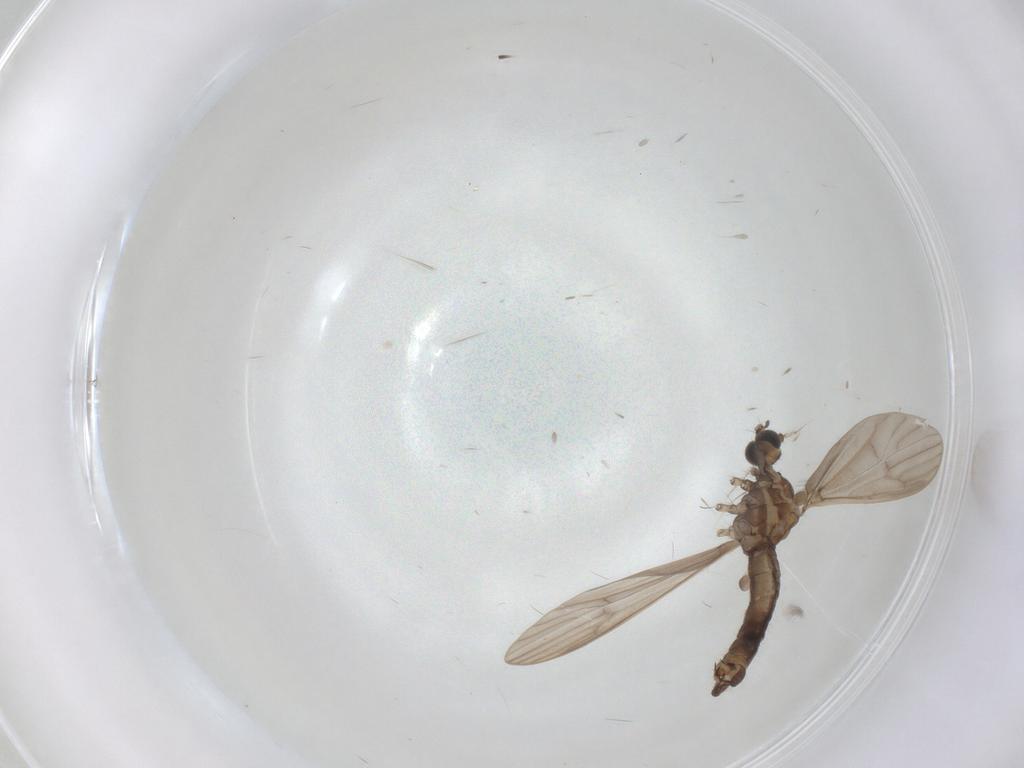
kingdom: Animalia
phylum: Arthropoda
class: Insecta
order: Diptera
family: Limoniidae
